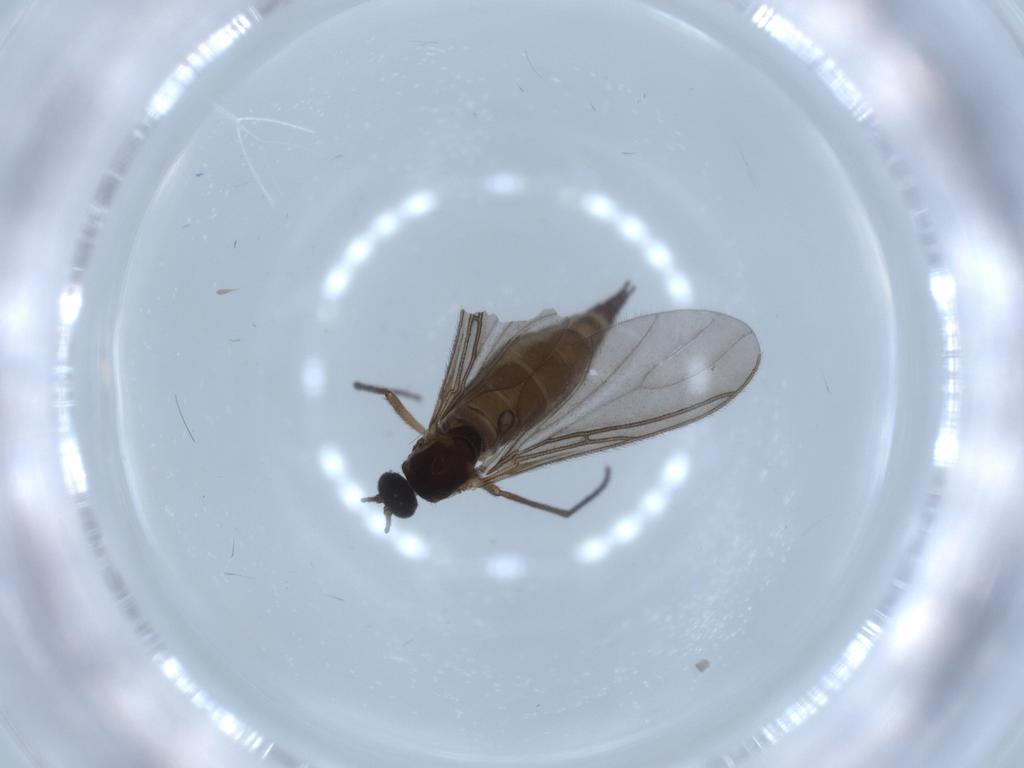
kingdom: Animalia
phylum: Arthropoda
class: Insecta
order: Diptera
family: Sciaridae
